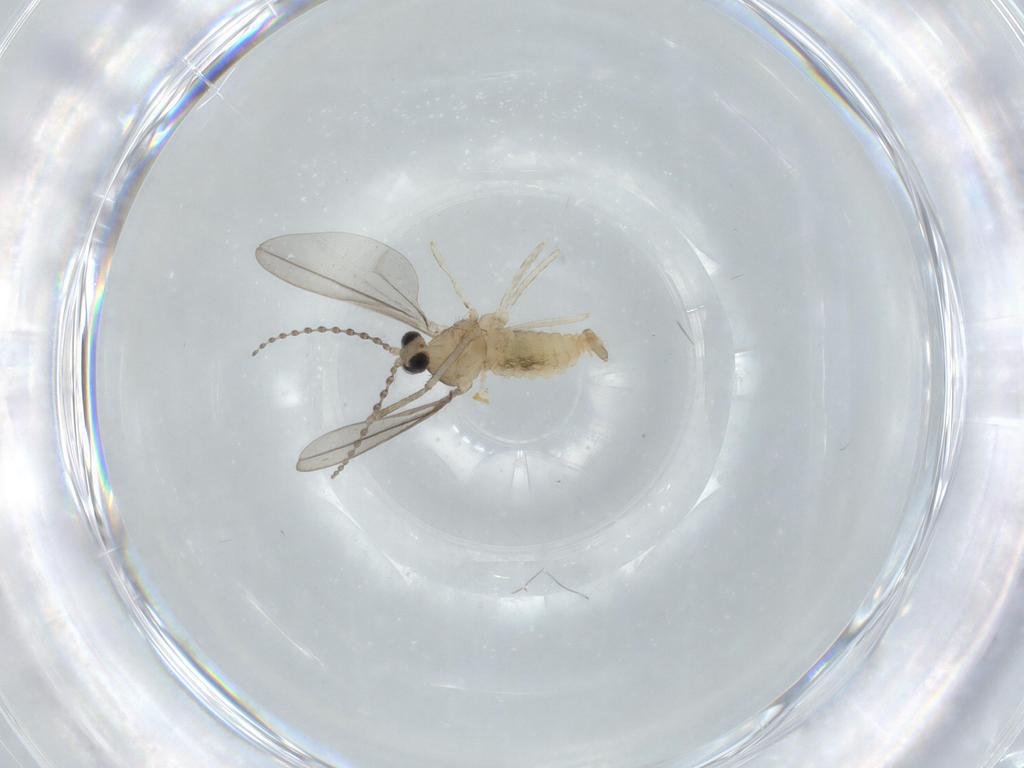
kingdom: Animalia
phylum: Arthropoda
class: Insecta
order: Diptera
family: Cecidomyiidae
